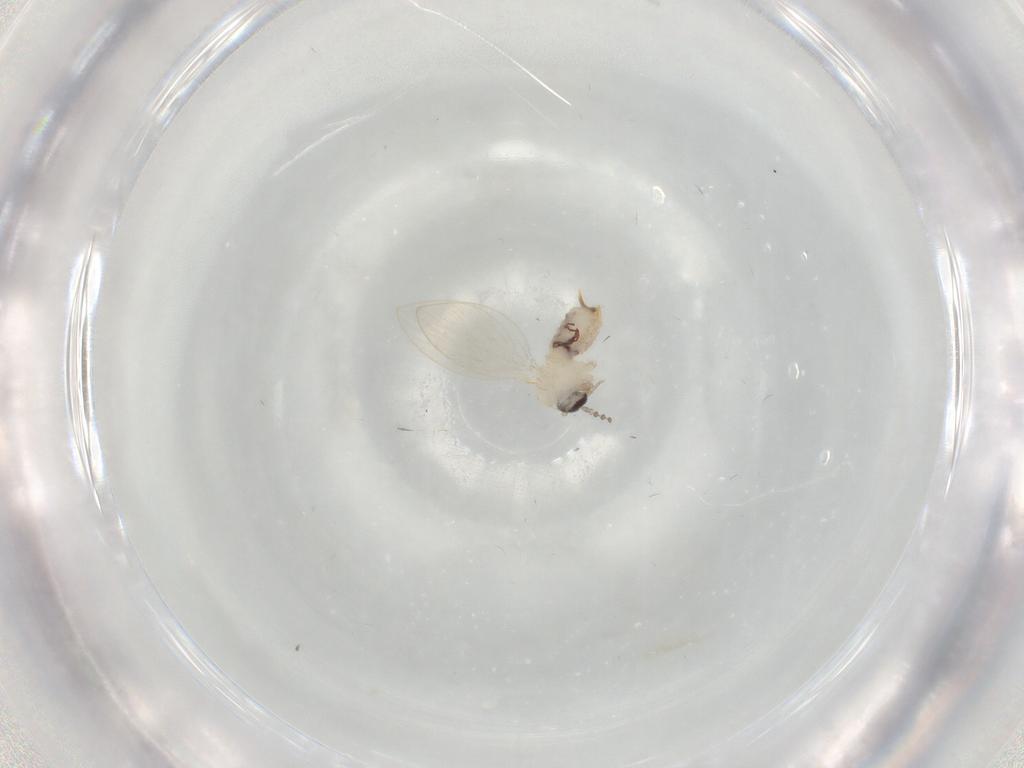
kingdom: Animalia
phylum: Arthropoda
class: Insecta
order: Diptera
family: Psychodidae
